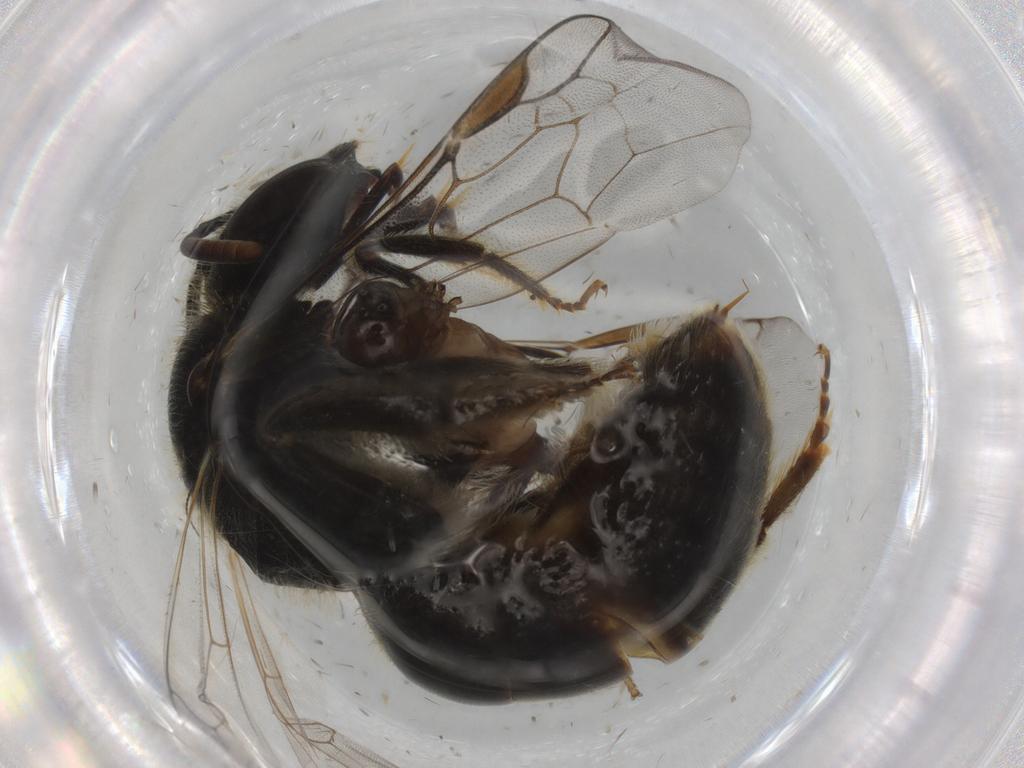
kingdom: Animalia
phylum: Arthropoda
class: Insecta
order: Hymenoptera
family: Halictidae
